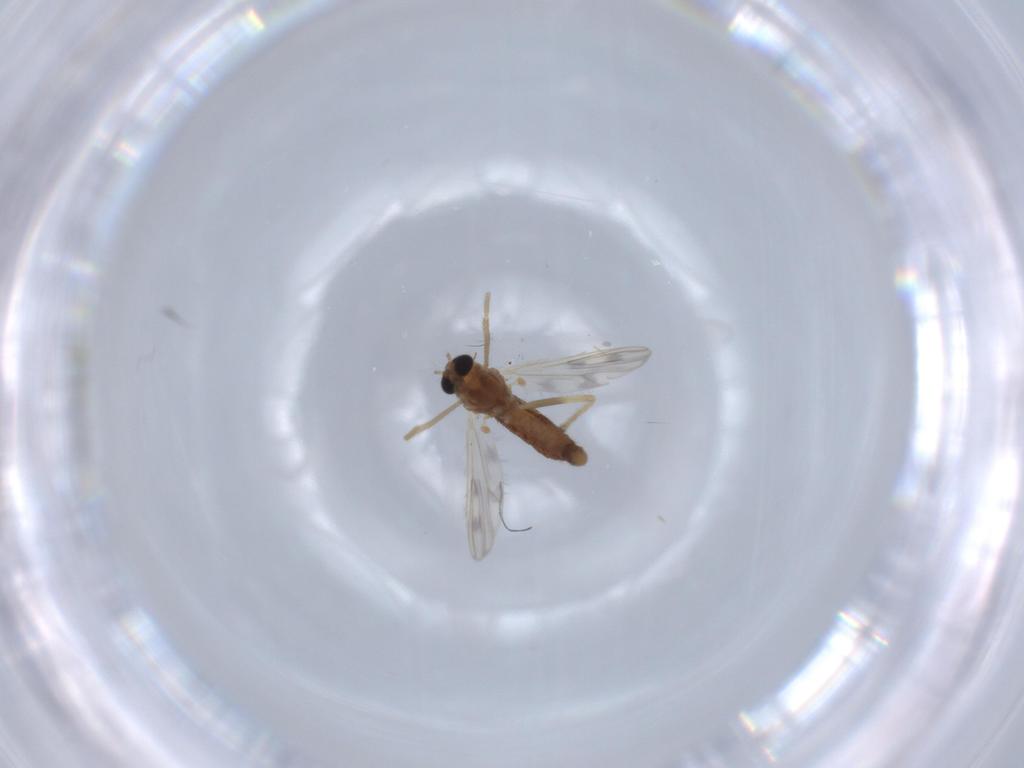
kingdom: Animalia
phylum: Arthropoda
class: Insecta
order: Diptera
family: Chironomidae
